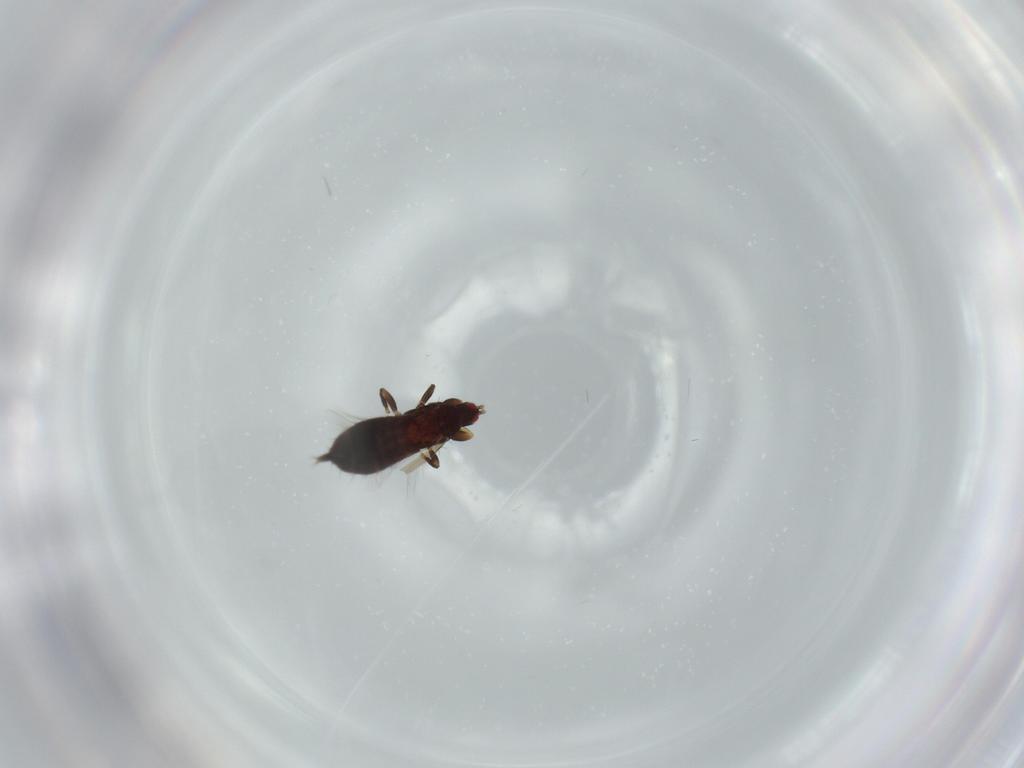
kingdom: Animalia
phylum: Arthropoda
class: Insecta
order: Thysanoptera
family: Phlaeothripidae
